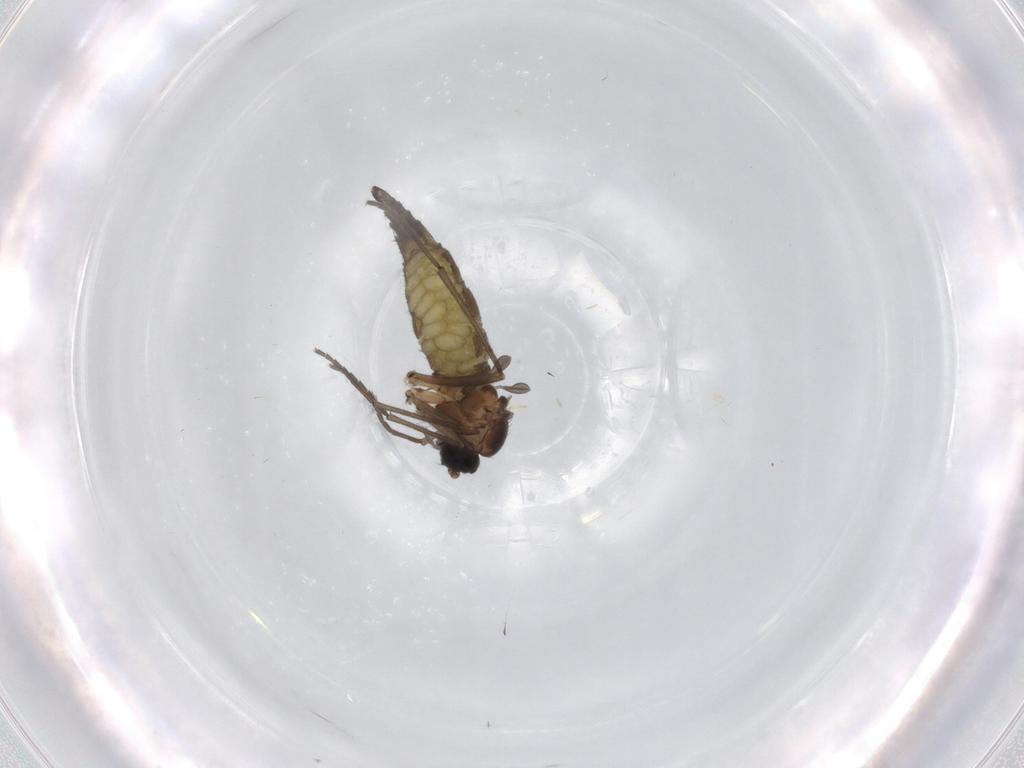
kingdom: Animalia
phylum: Arthropoda
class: Insecta
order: Diptera
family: Sciaridae
